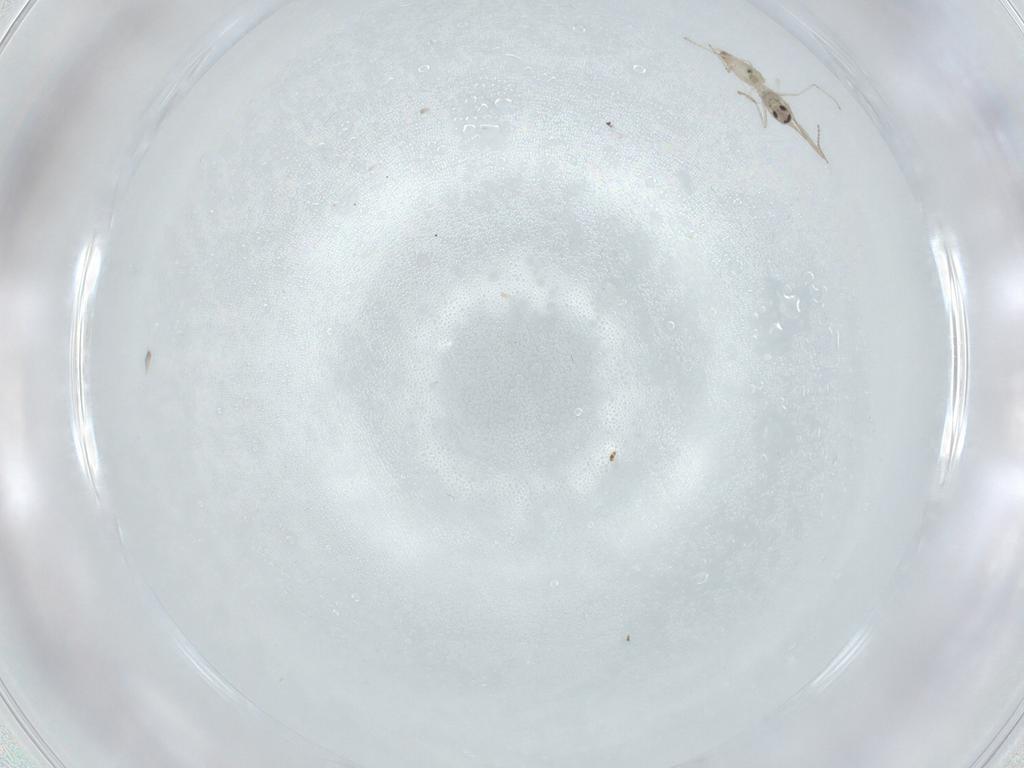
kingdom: Animalia
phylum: Arthropoda
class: Insecta
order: Diptera
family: Cecidomyiidae
